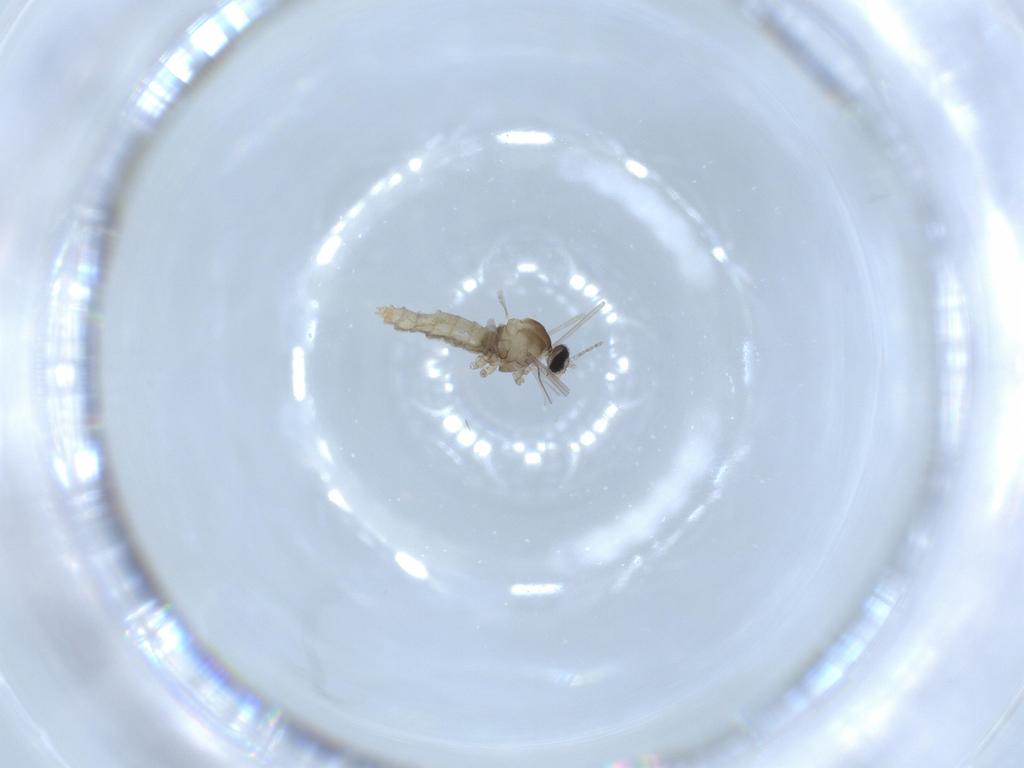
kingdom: Animalia
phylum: Arthropoda
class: Insecta
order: Diptera
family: Cecidomyiidae
